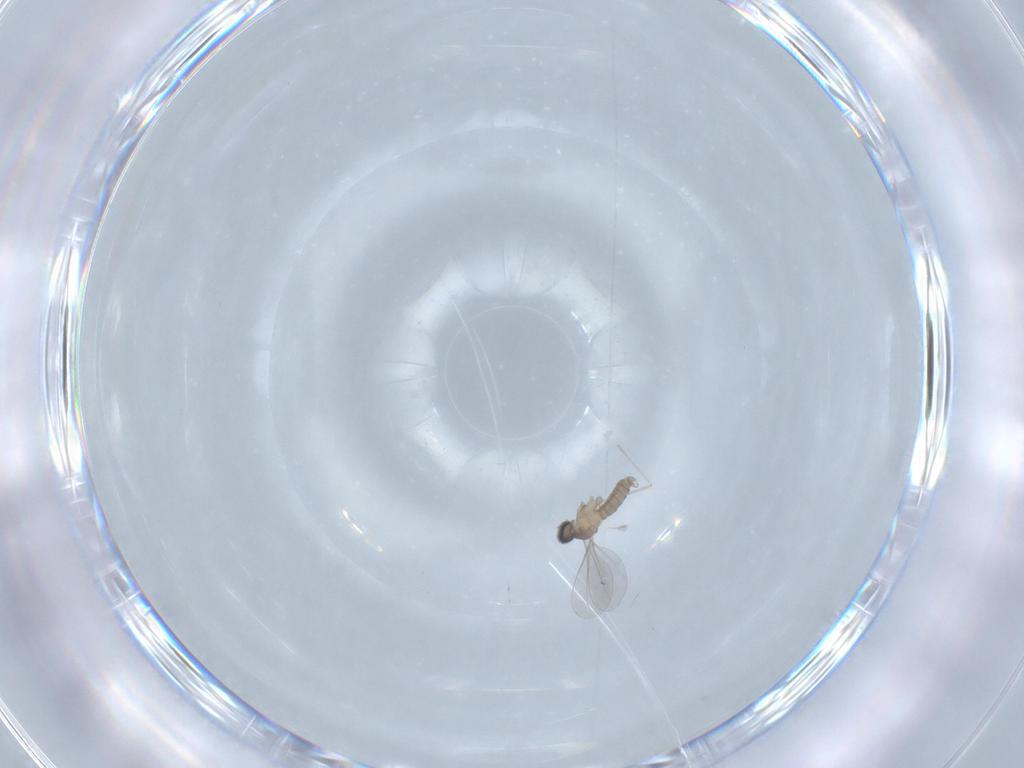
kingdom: Animalia
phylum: Arthropoda
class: Insecta
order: Diptera
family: Cecidomyiidae
